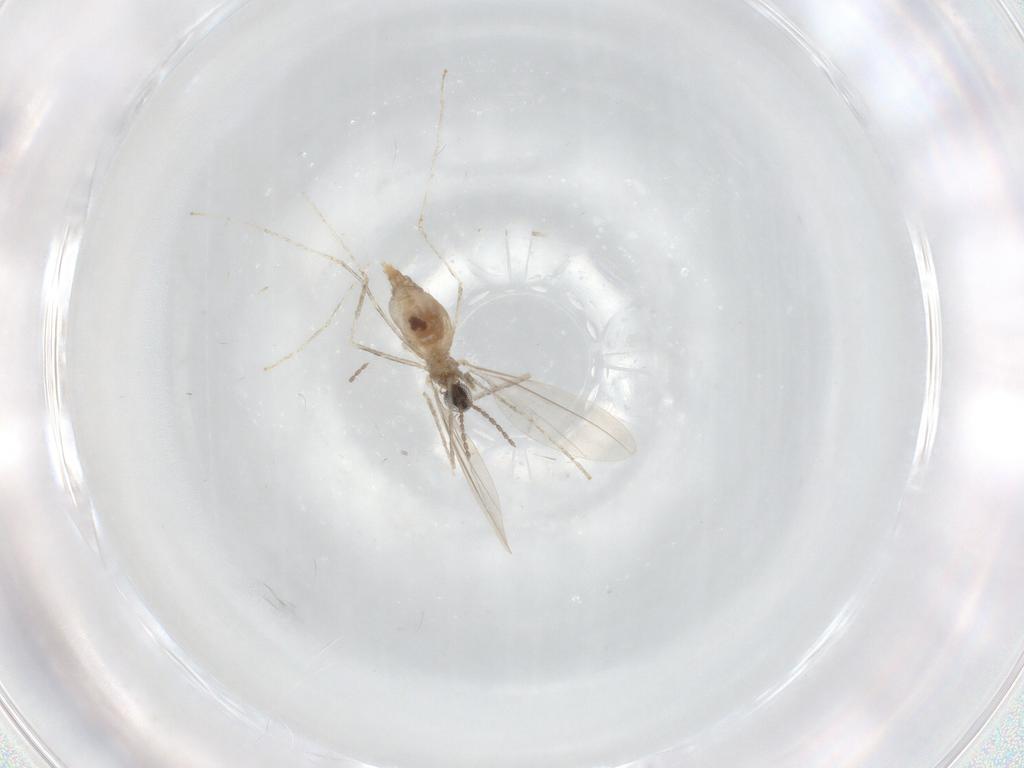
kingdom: Animalia
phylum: Arthropoda
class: Insecta
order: Diptera
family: Cecidomyiidae
